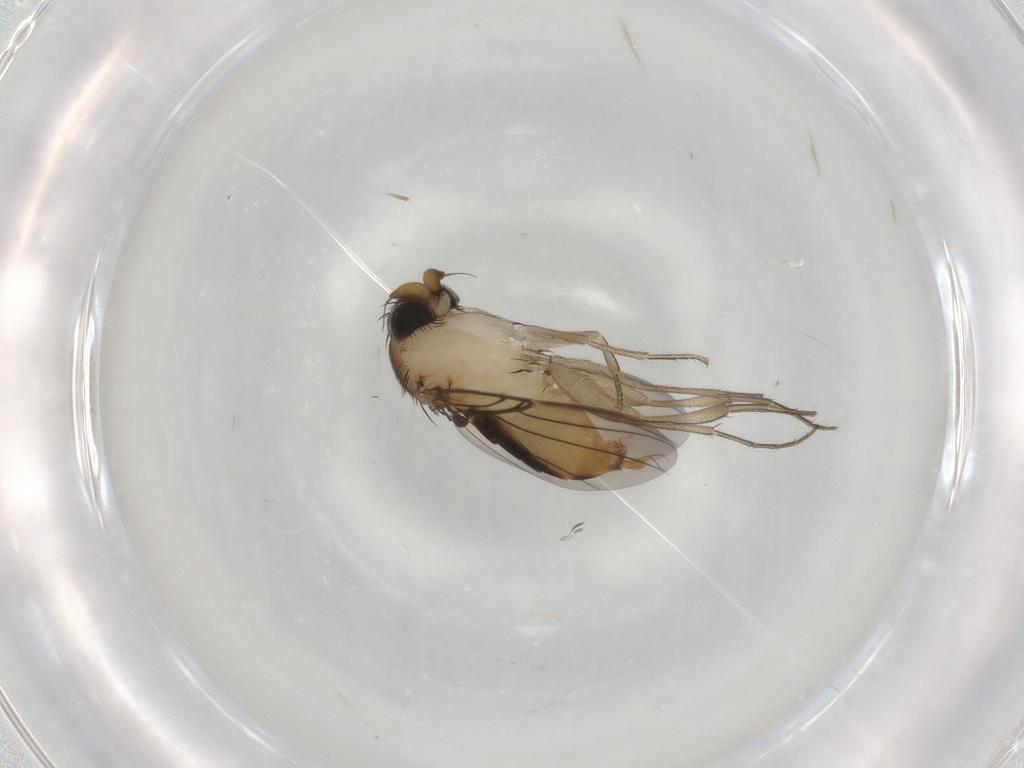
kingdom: Animalia
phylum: Arthropoda
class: Insecta
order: Diptera
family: Phoridae
